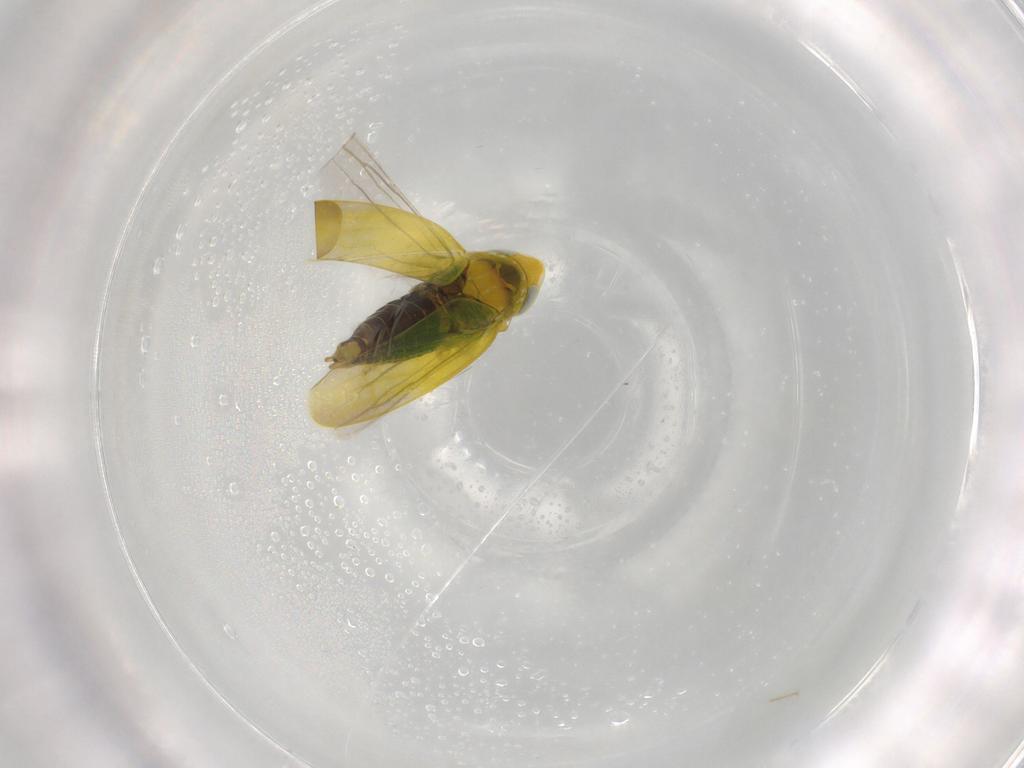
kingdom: Animalia
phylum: Arthropoda
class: Insecta
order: Hemiptera
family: Cicadellidae
